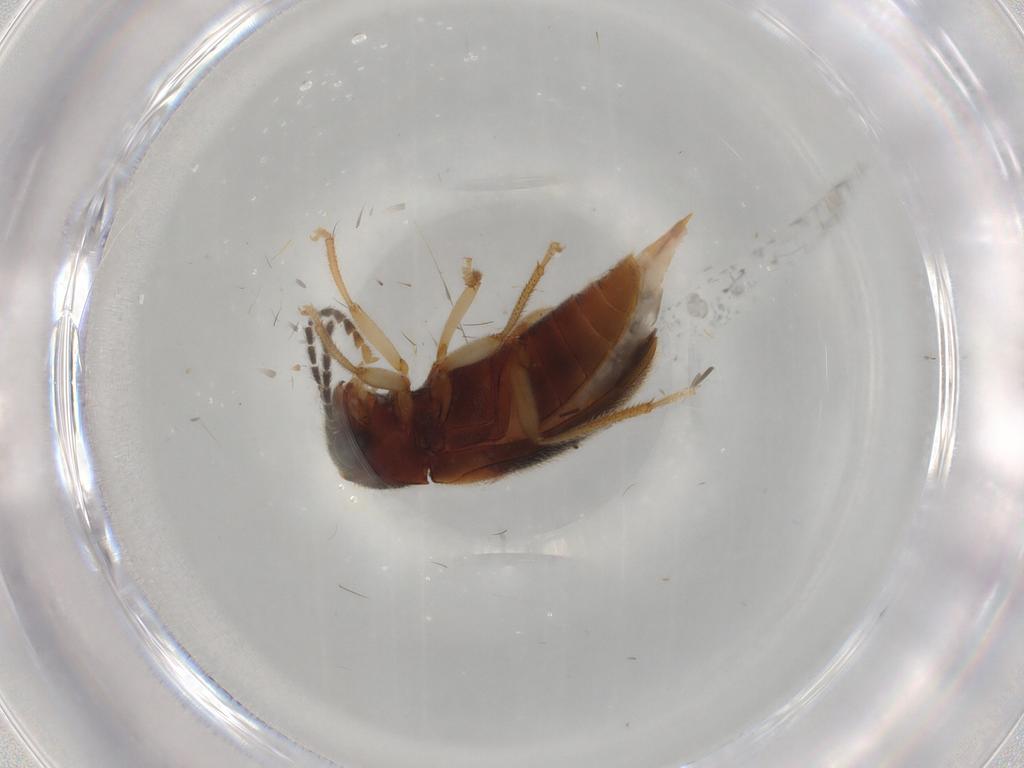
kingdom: Animalia
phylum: Arthropoda
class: Insecta
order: Coleoptera
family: Ptilodactylidae
